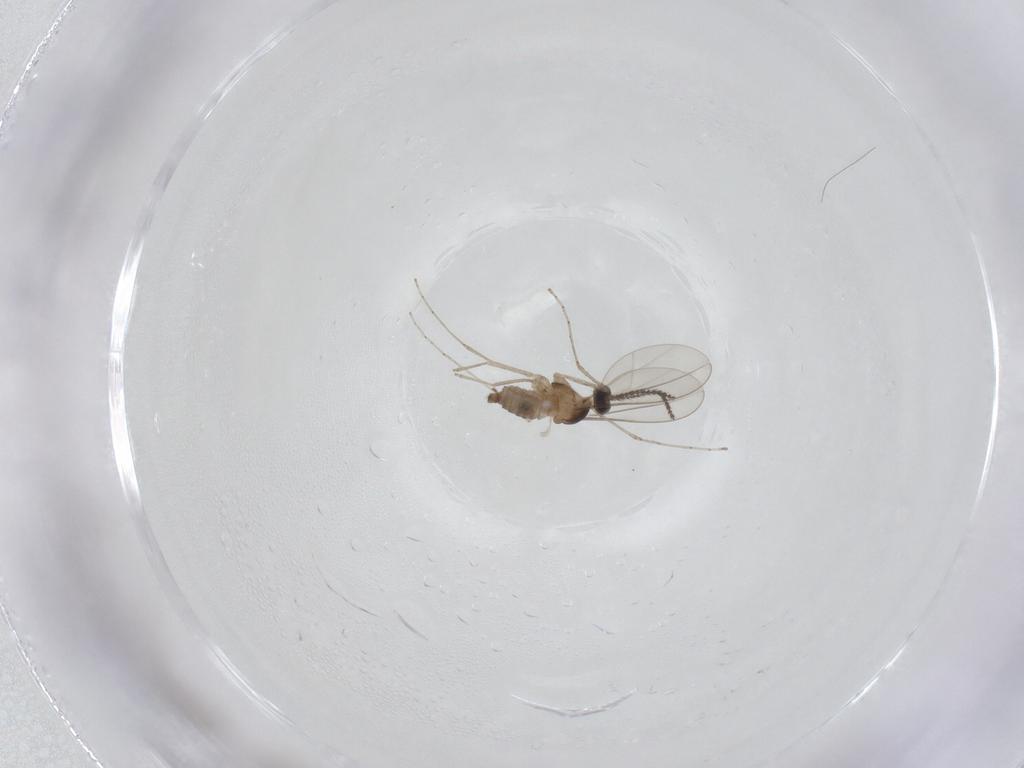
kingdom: Animalia
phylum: Arthropoda
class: Insecta
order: Diptera
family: Cecidomyiidae
